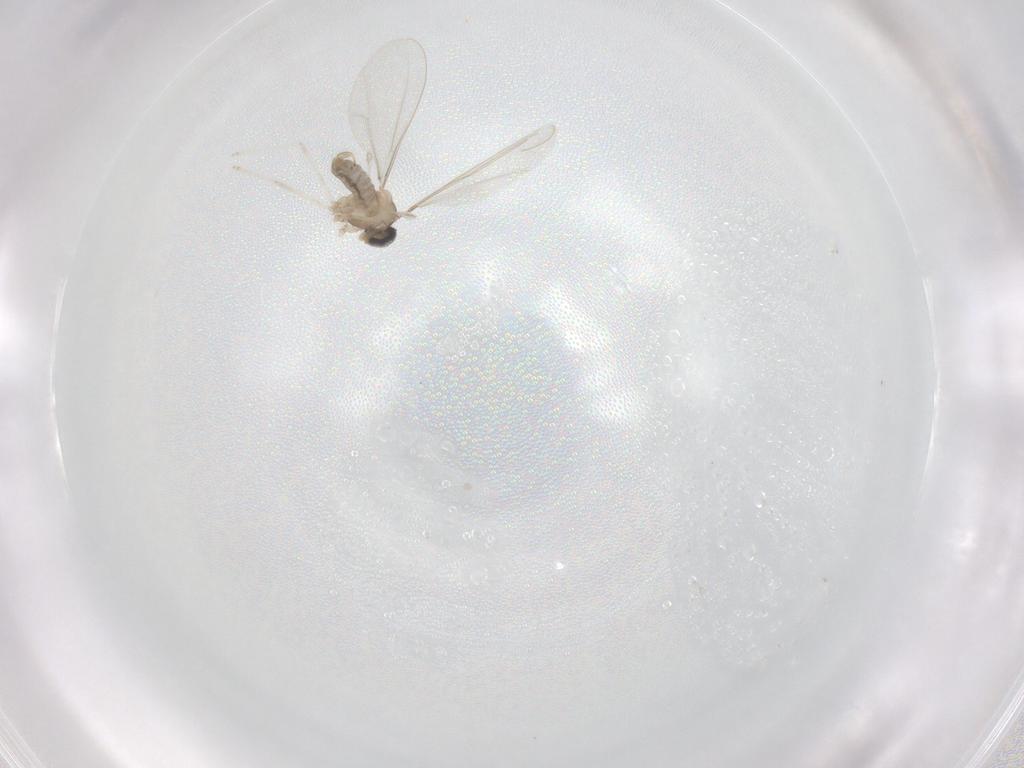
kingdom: Animalia
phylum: Arthropoda
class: Insecta
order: Diptera
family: Cecidomyiidae
